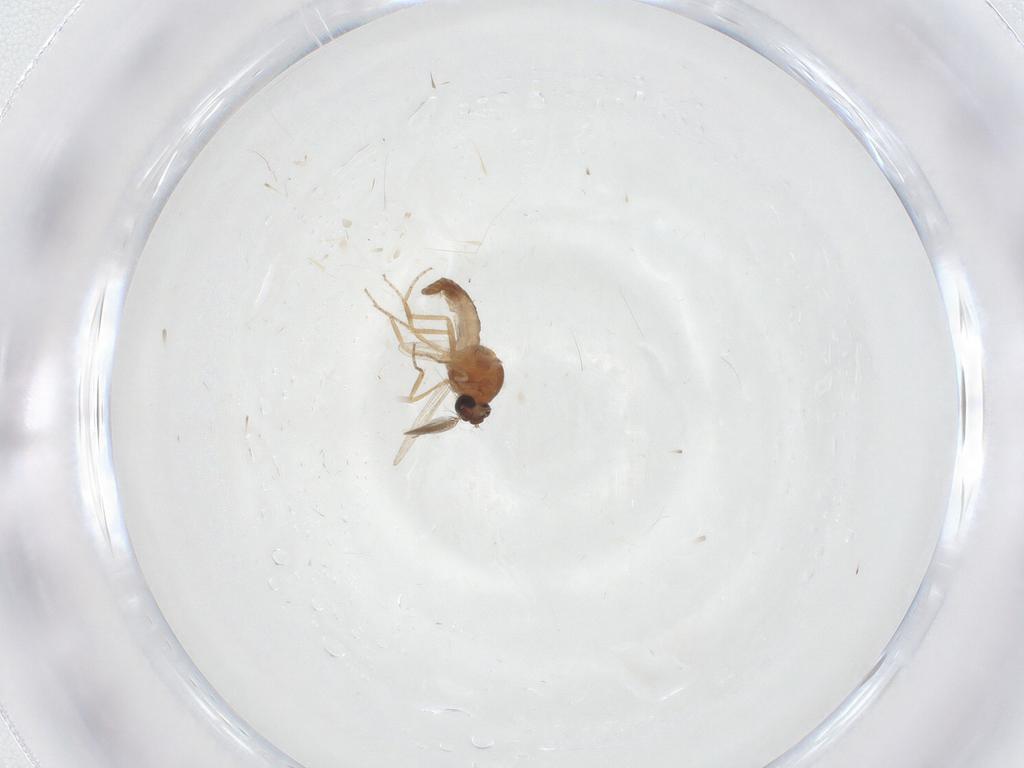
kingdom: Animalia
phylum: Arthropoda
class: Insecta
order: Diptera
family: Ceratopogonidae
